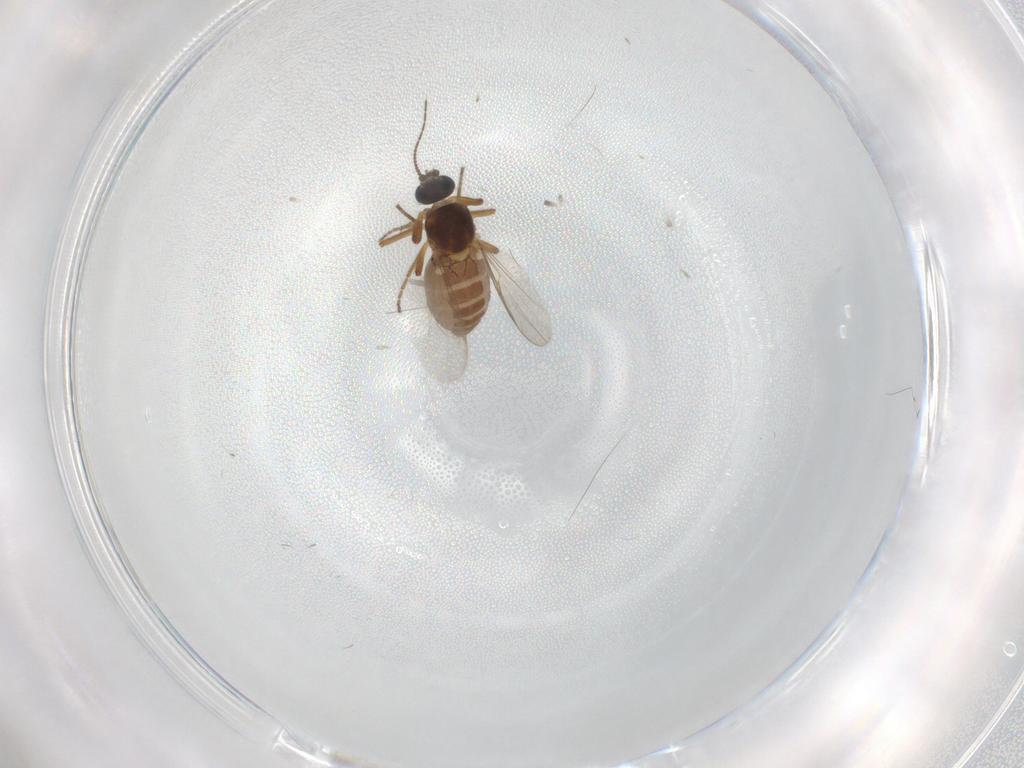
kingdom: Animalia
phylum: Arthropoda
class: Insecta
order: Diptera
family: Ceratopogonidae
